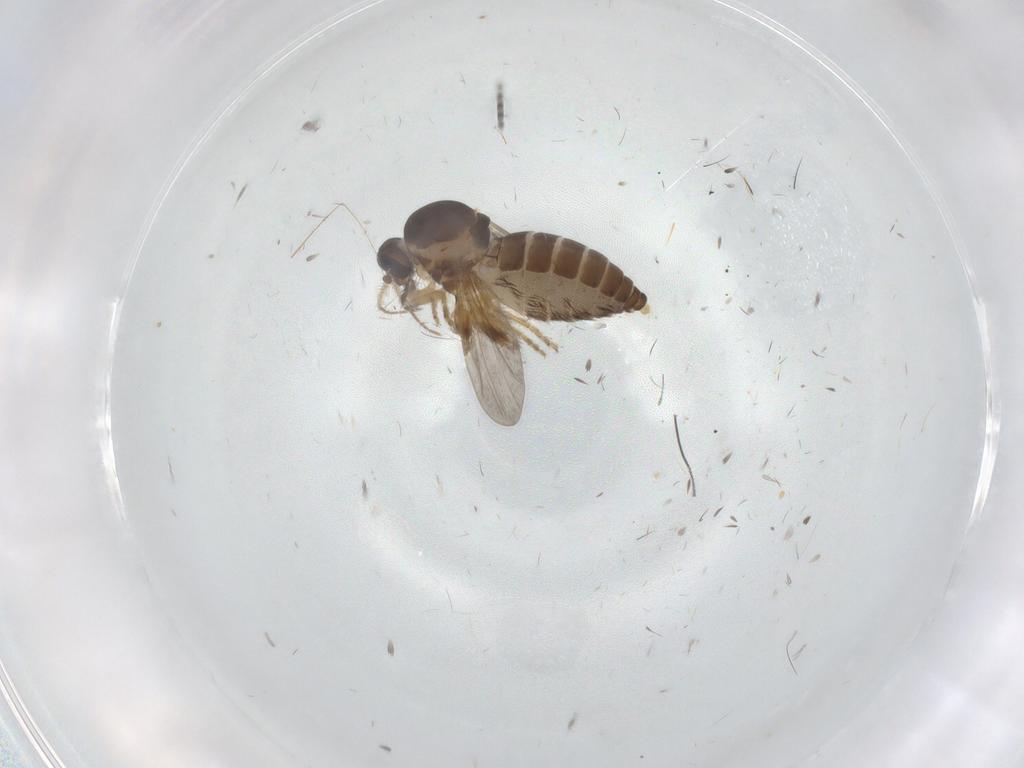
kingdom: Animalia
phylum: Arthropoda
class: Insecta
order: Diptera
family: Ceratopogonidae
